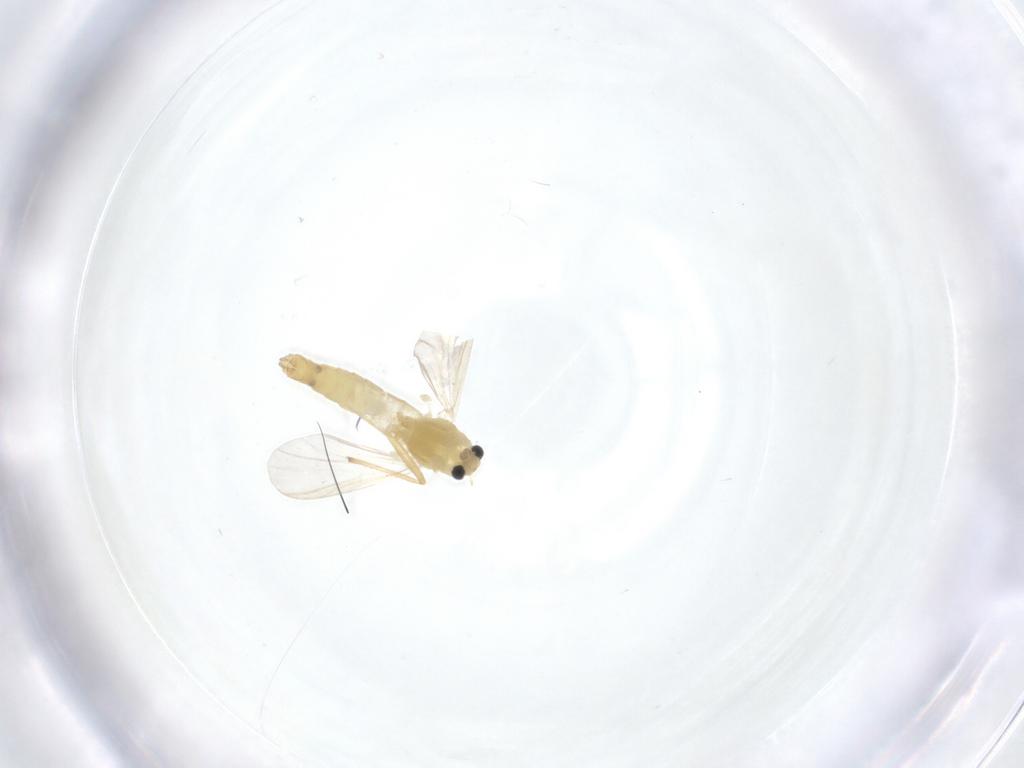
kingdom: Animalia
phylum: Arthropoda
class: Insecta
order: Diptera
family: Chironomidae
